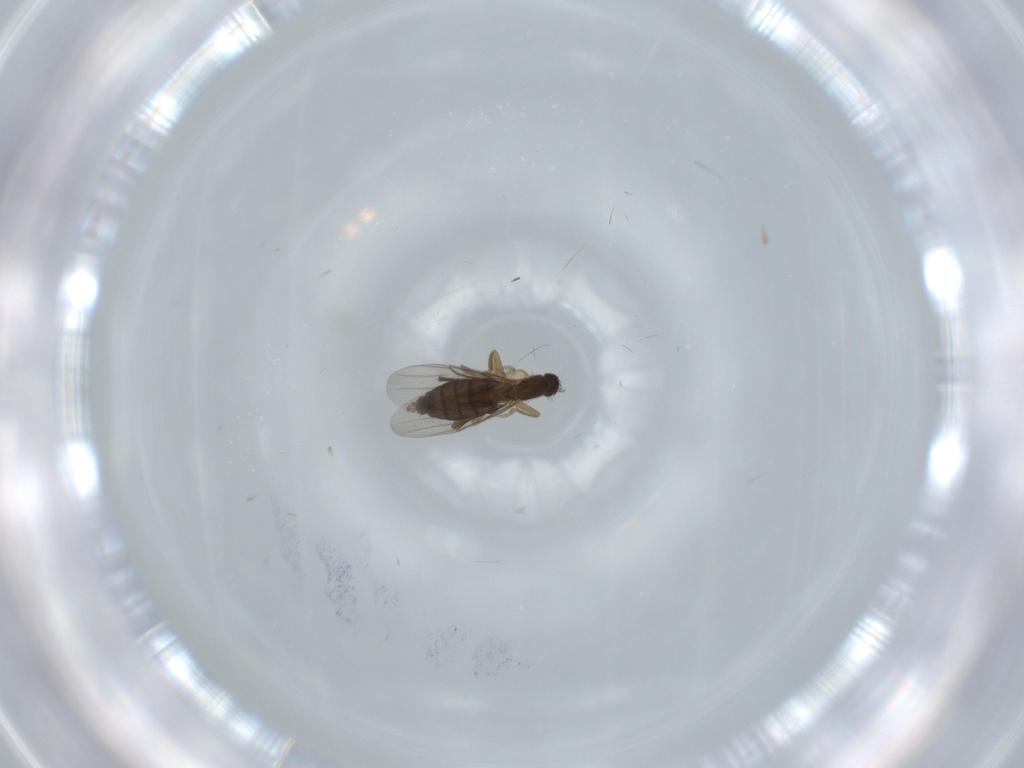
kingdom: Animalia
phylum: Arthropoda
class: Insecta
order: Diptera
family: Phoridae
